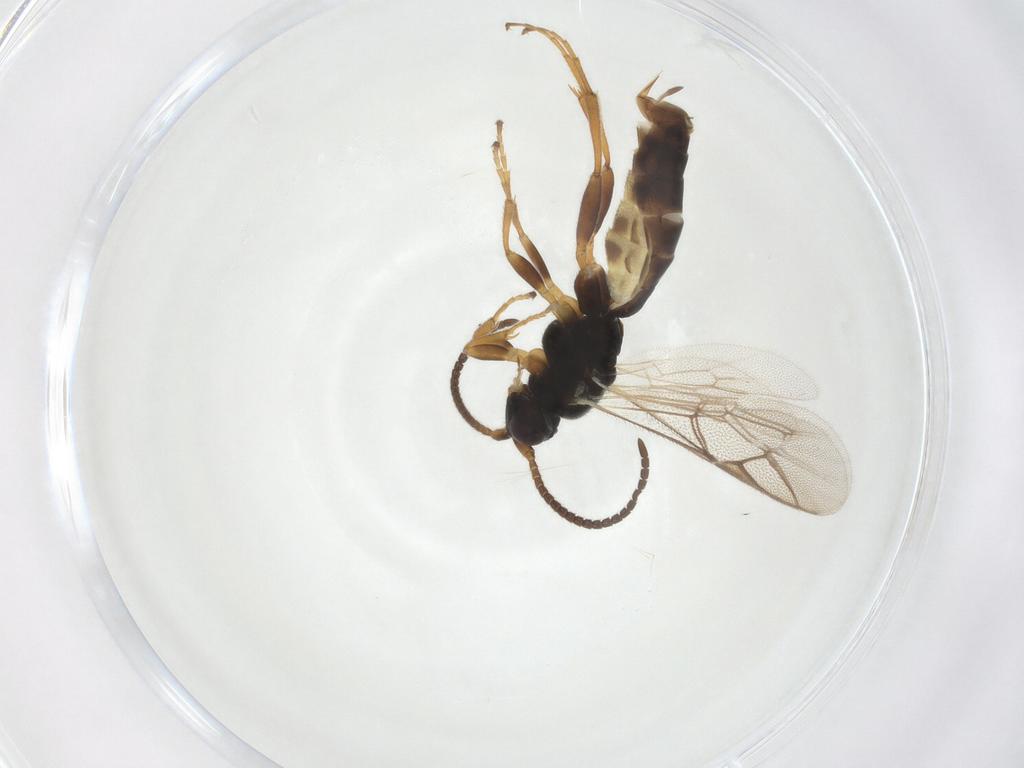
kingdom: Animalia
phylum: Arthropoda
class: Insecta
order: Hymenoptera
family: Ichneumonidae
